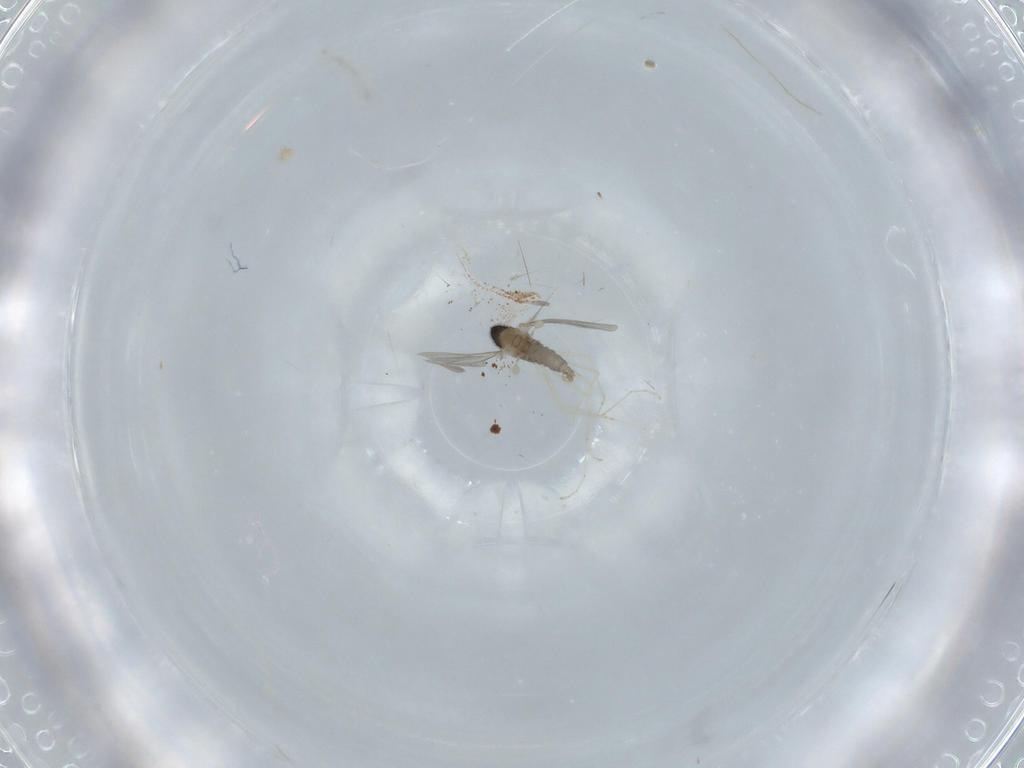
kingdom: Animalia
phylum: Arthropoda
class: Insecta
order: Diptera
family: Cecidomyiidae
